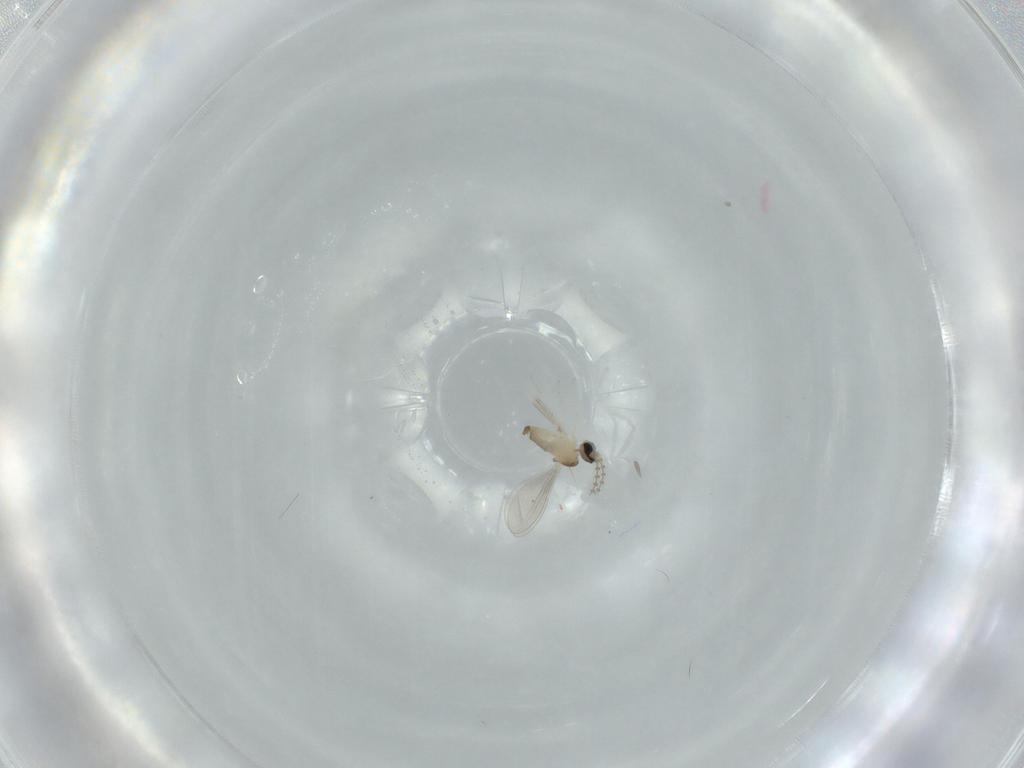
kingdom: Animalia
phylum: Arthropoda
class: Insecta
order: Diptera
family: Cecidomyiidae
